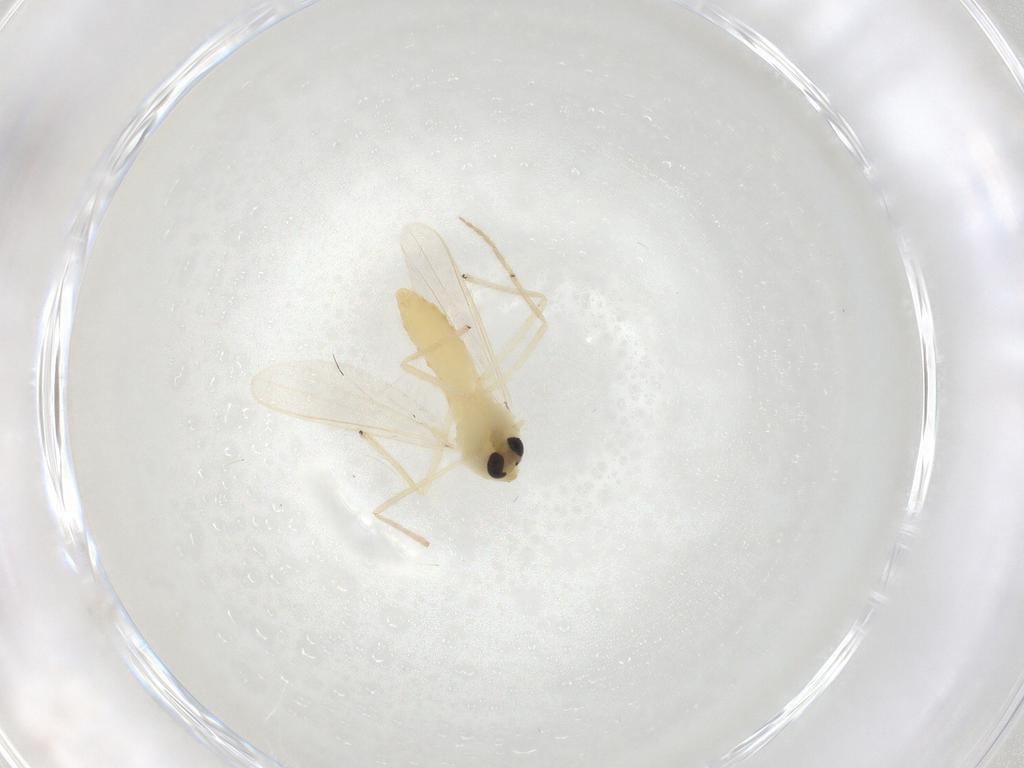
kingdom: Animalia
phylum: Arthropoda
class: Insecta
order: Diptera
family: Chironomidae
